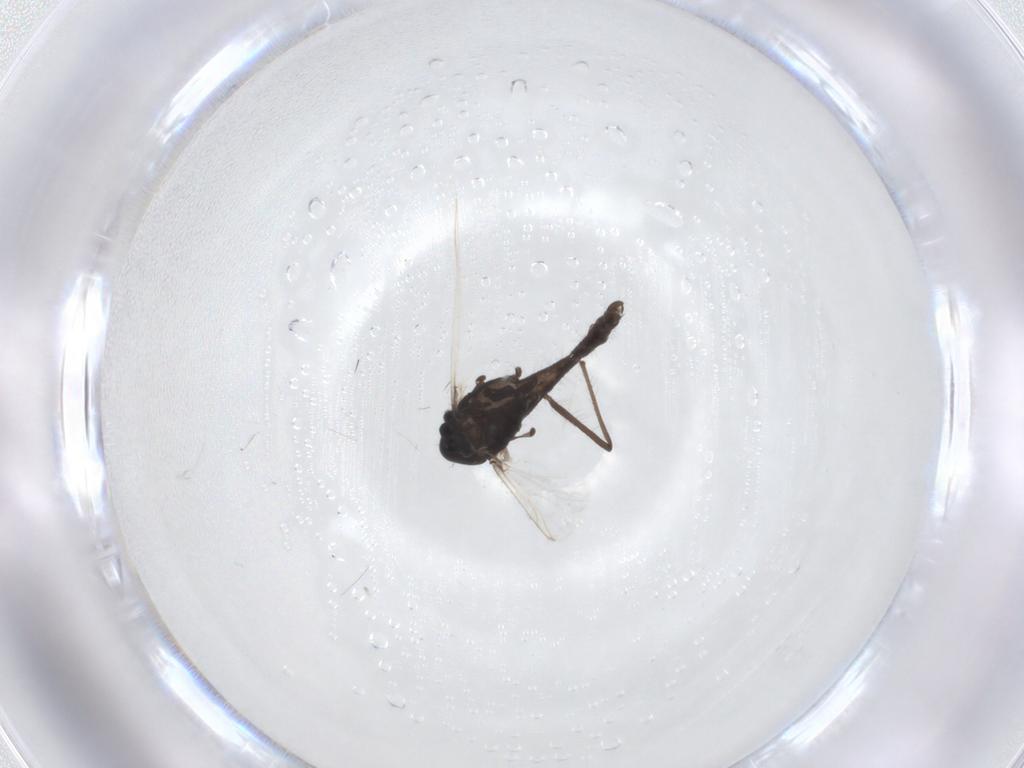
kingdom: Animalia
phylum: Arthropoda
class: Insecta
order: Diptera
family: Chironomidae
